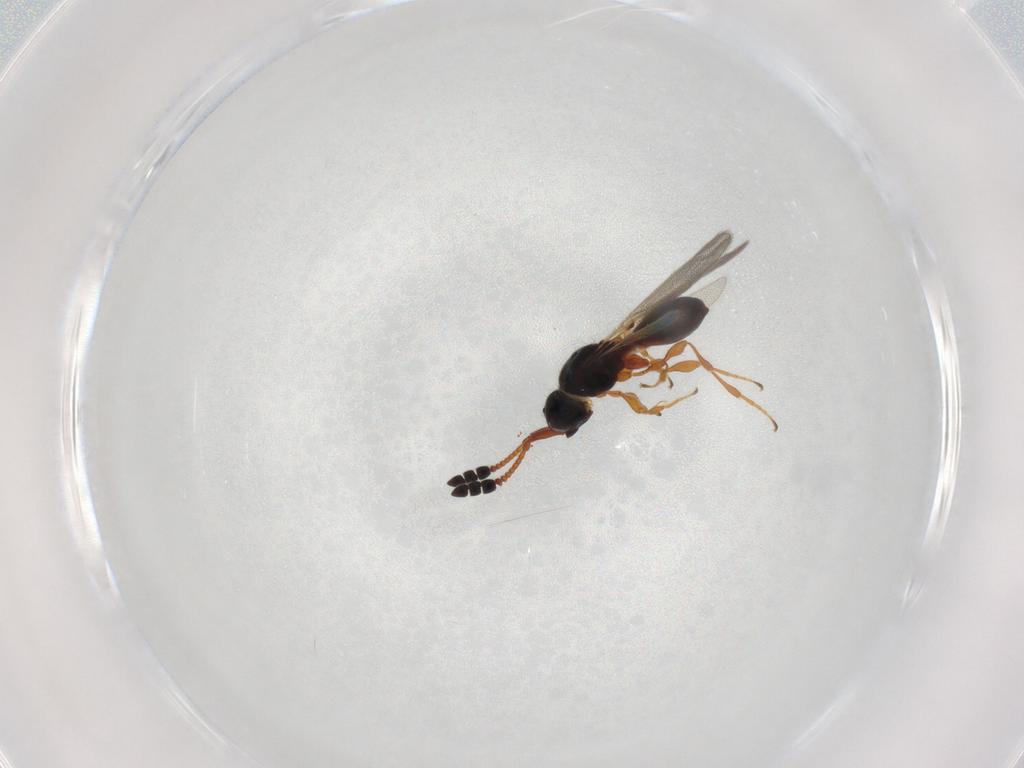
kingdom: Animalia
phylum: Arthropoda
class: Insecta
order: Hymenoptera
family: Diapriidae
